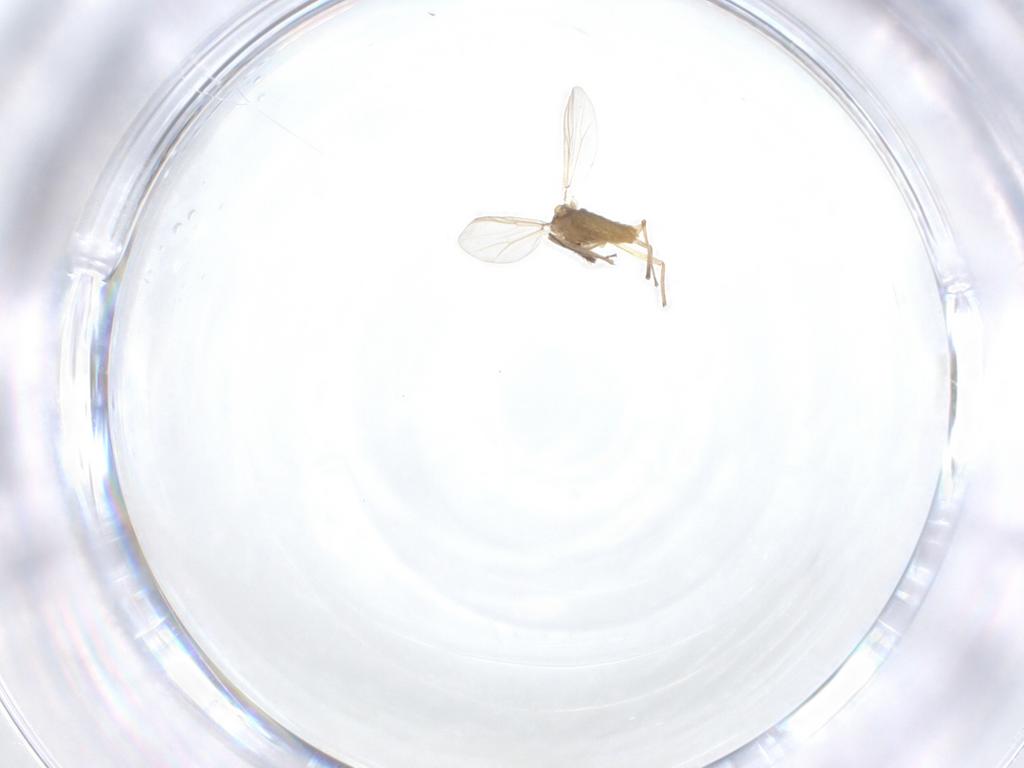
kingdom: Animalia
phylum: Arthropoda
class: Insecta
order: Diptera
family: Chironomidae
